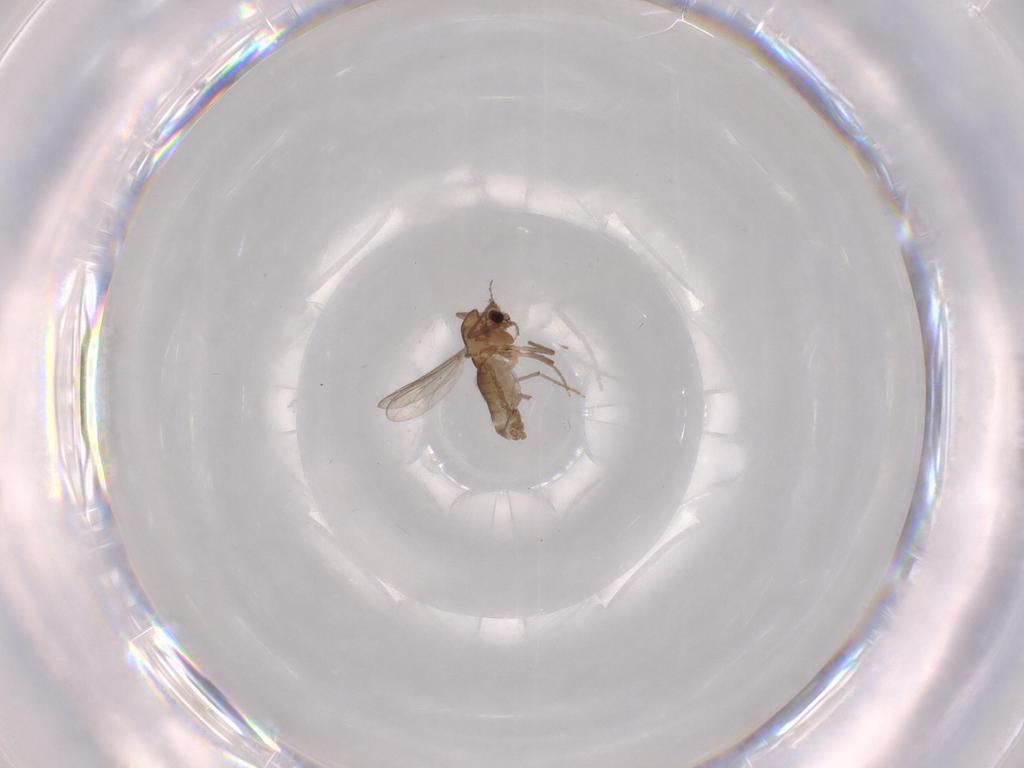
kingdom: Animalia
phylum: Arthropoda
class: Insecta
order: Diptera
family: Chironomidae
